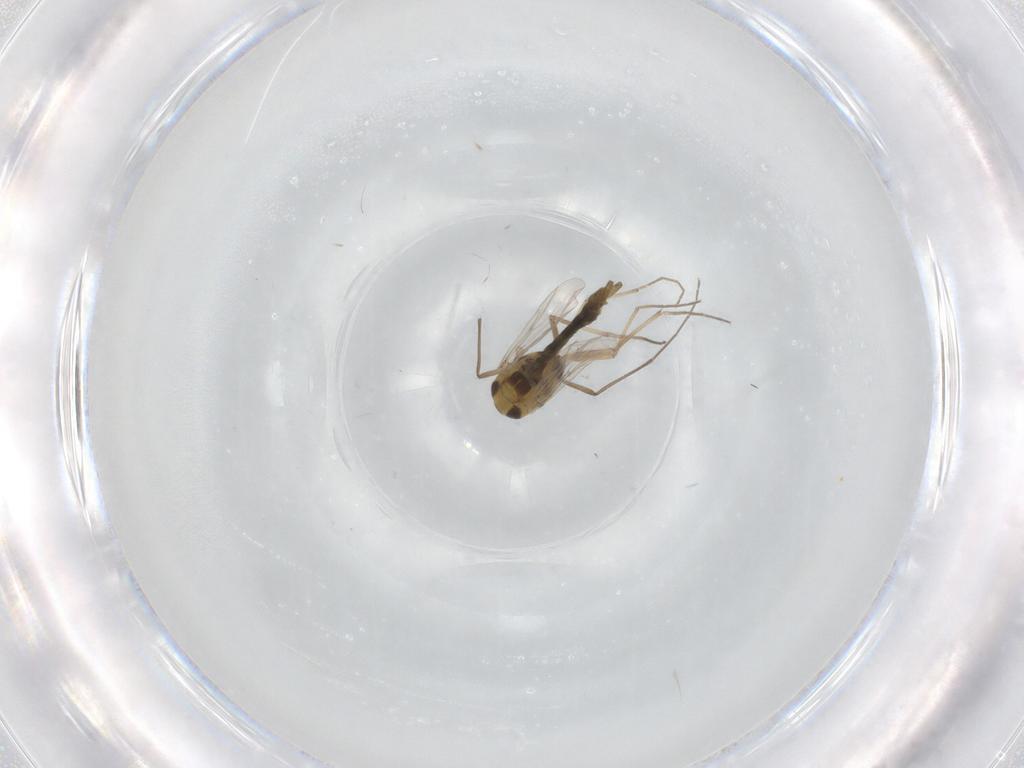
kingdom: Animalia
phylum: Arthropoda
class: Insecta
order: Diptera
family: Chironomidae
